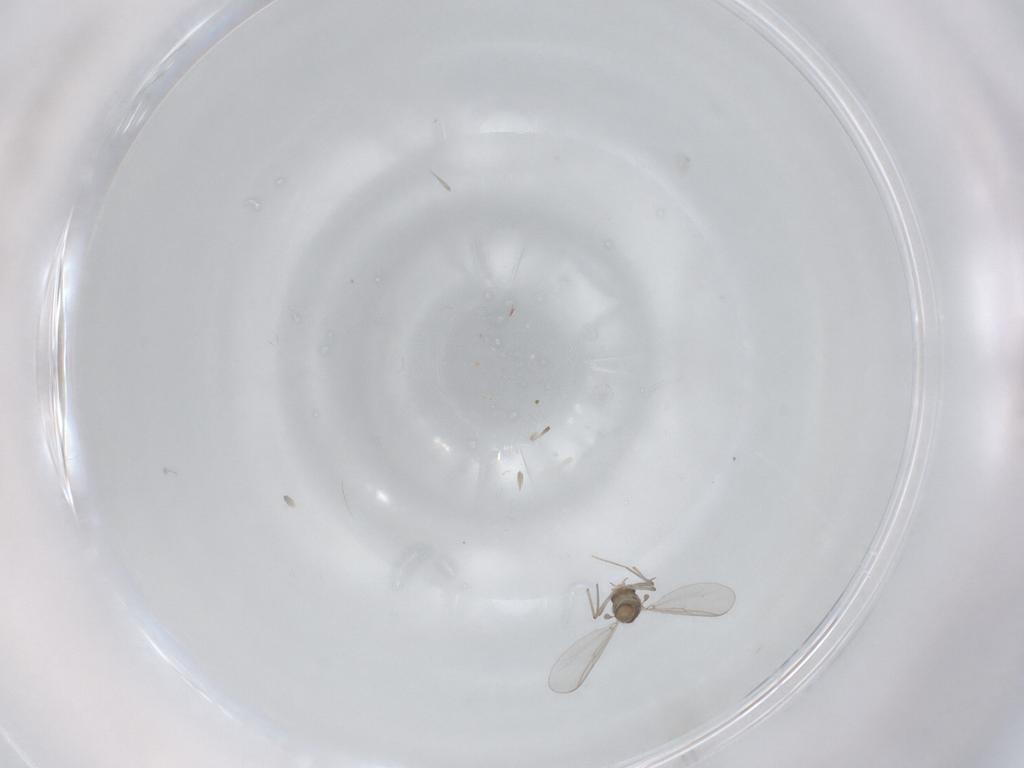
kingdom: Animalia
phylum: Arthropoda
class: Insecta
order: Diptera
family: Chironomidae
